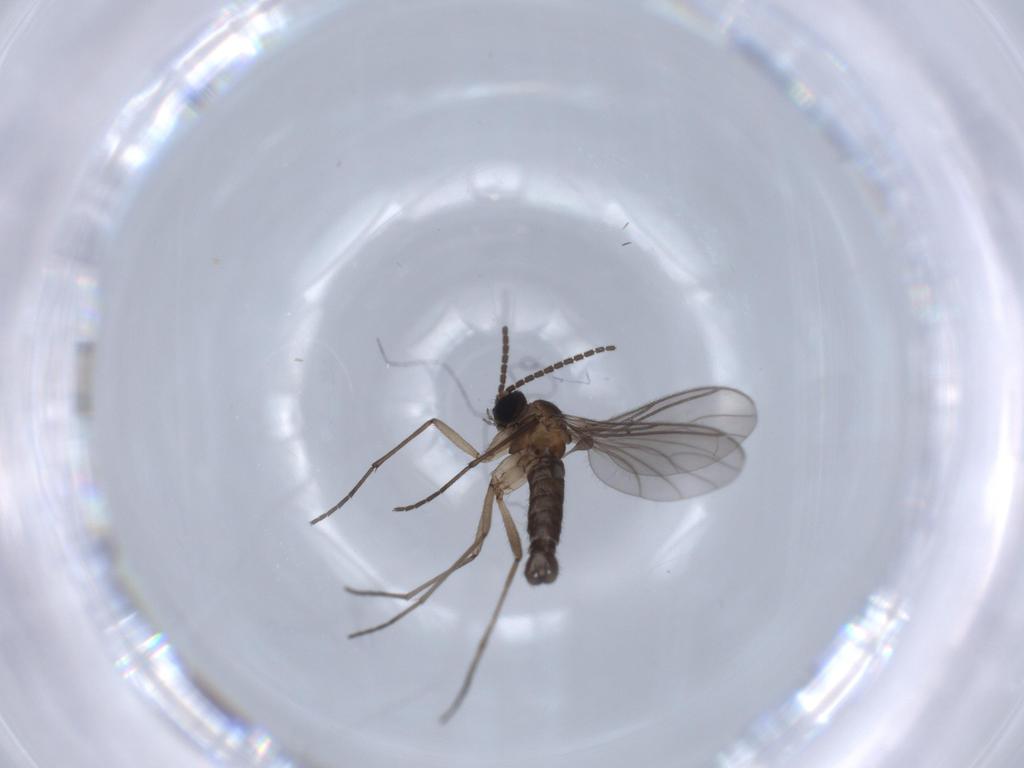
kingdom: Animalia
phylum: Arthropoda
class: Insecta
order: Diptera
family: Sciaridae
